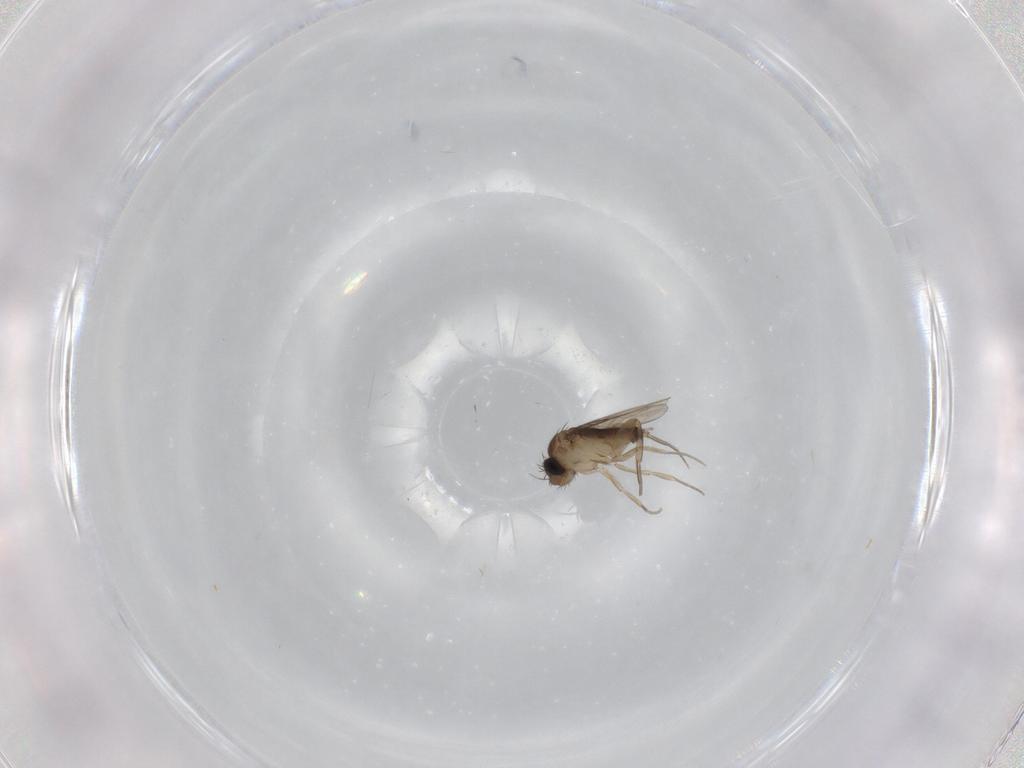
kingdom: Animalia
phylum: Arthropoda
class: Insecta
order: Diptera
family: Phoridae
